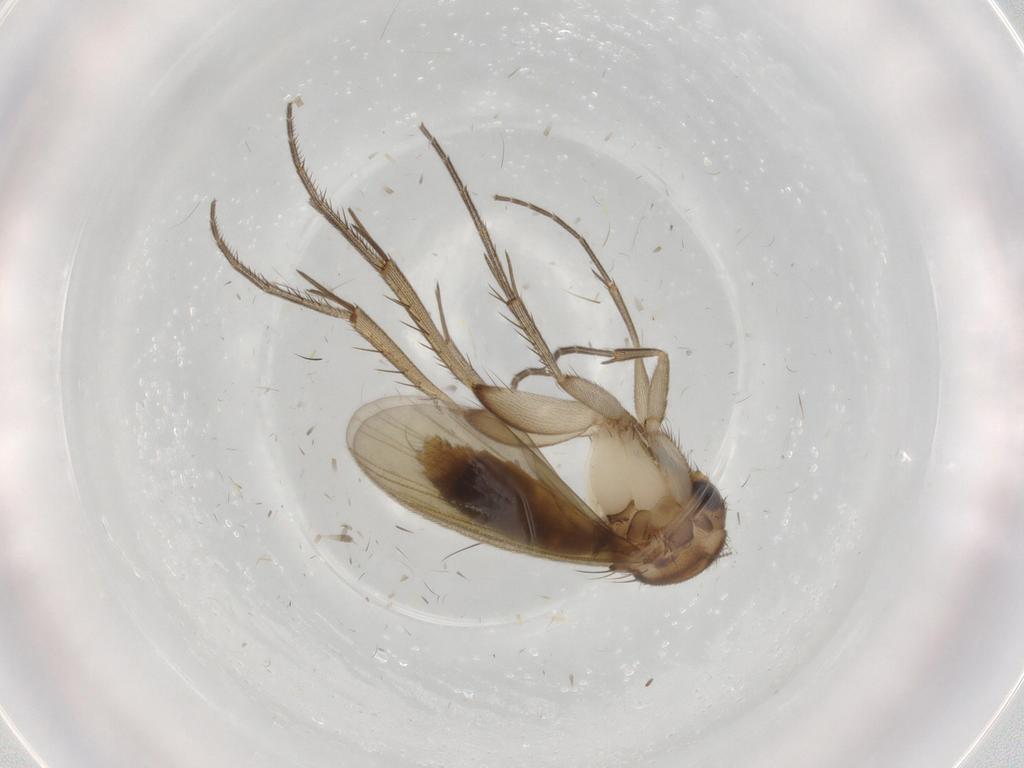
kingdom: Animalia
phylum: Arthropoda
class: Insecta
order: Diptera
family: Mycetophilidae
